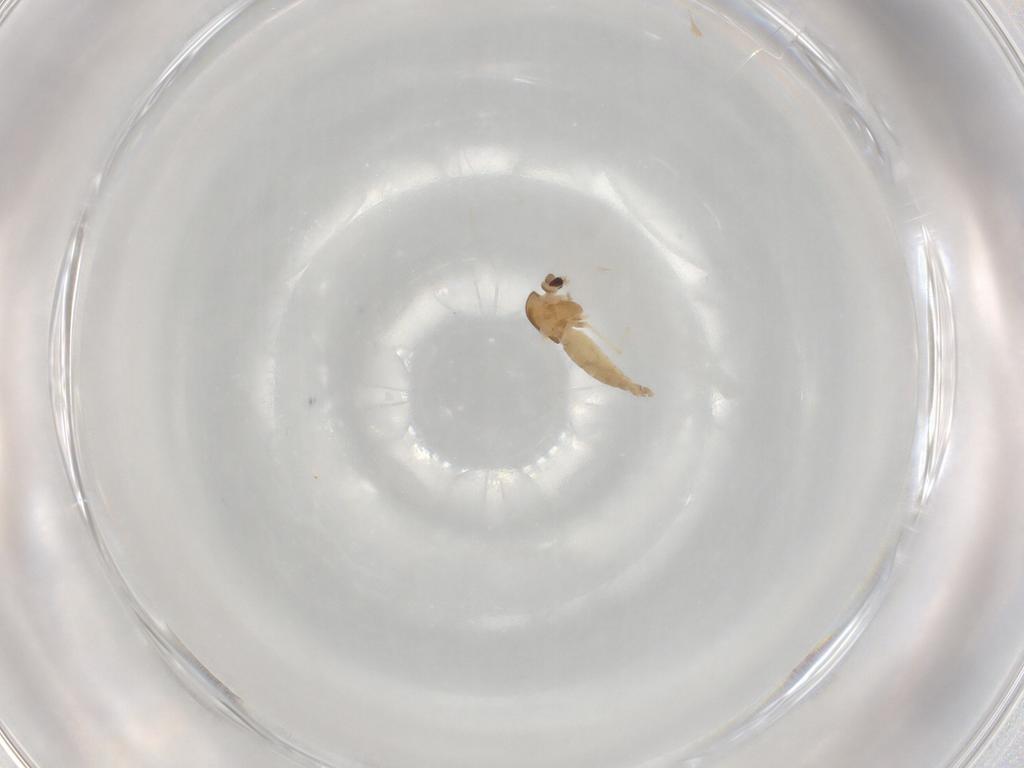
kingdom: Animalia
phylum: Arthropoda
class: Insecta
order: Diptera
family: Chironomidae
